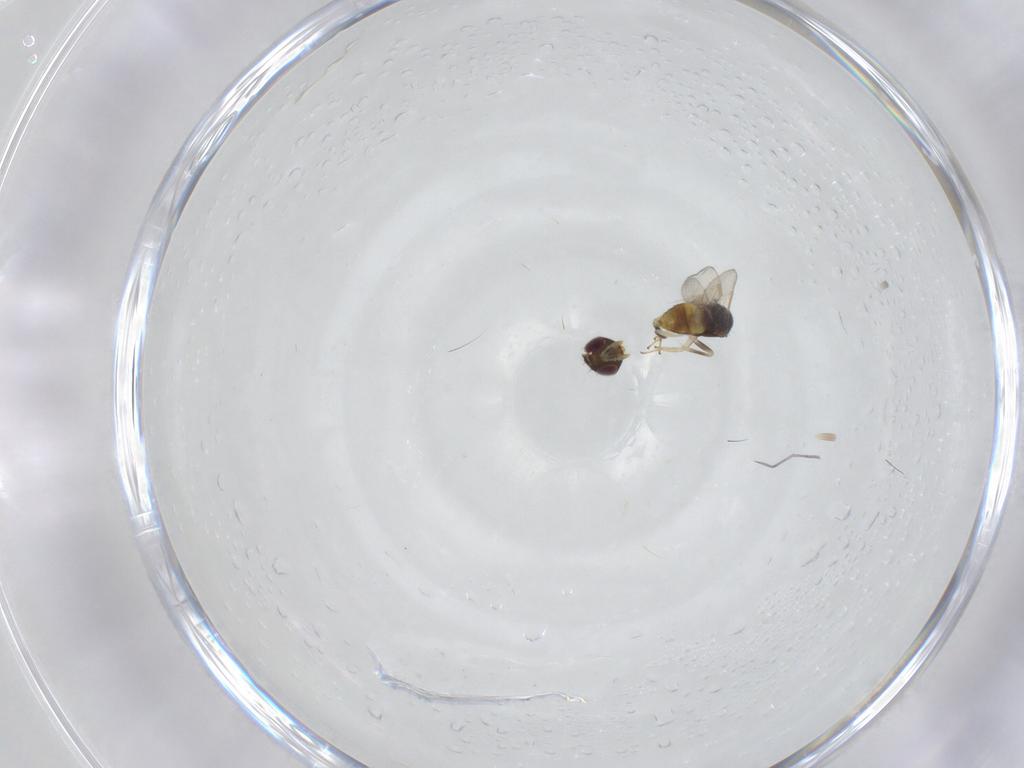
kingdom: Animalia
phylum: Arthropoda
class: Insecta
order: Hymenoptera
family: Aphelinidae
